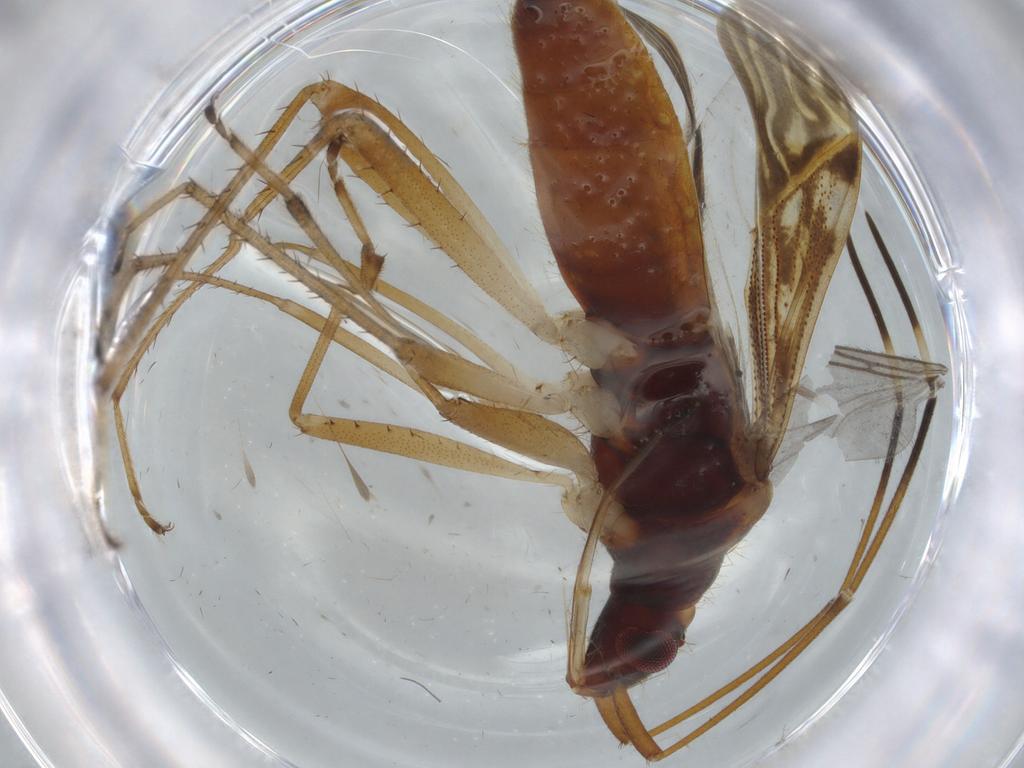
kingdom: Animalia
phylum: Arthropoda
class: Insecta
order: Hemiptera
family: Rhyparochromidae
